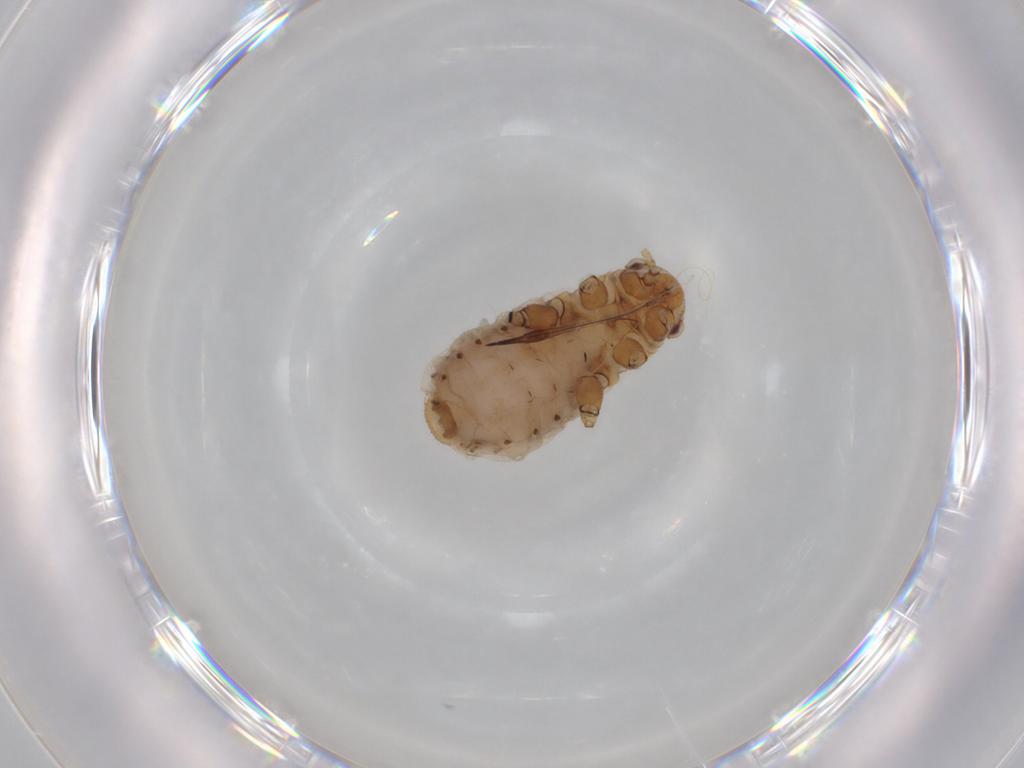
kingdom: Animalia
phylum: Arthropoda
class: Insecta
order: Hemiptera
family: Aphididae
